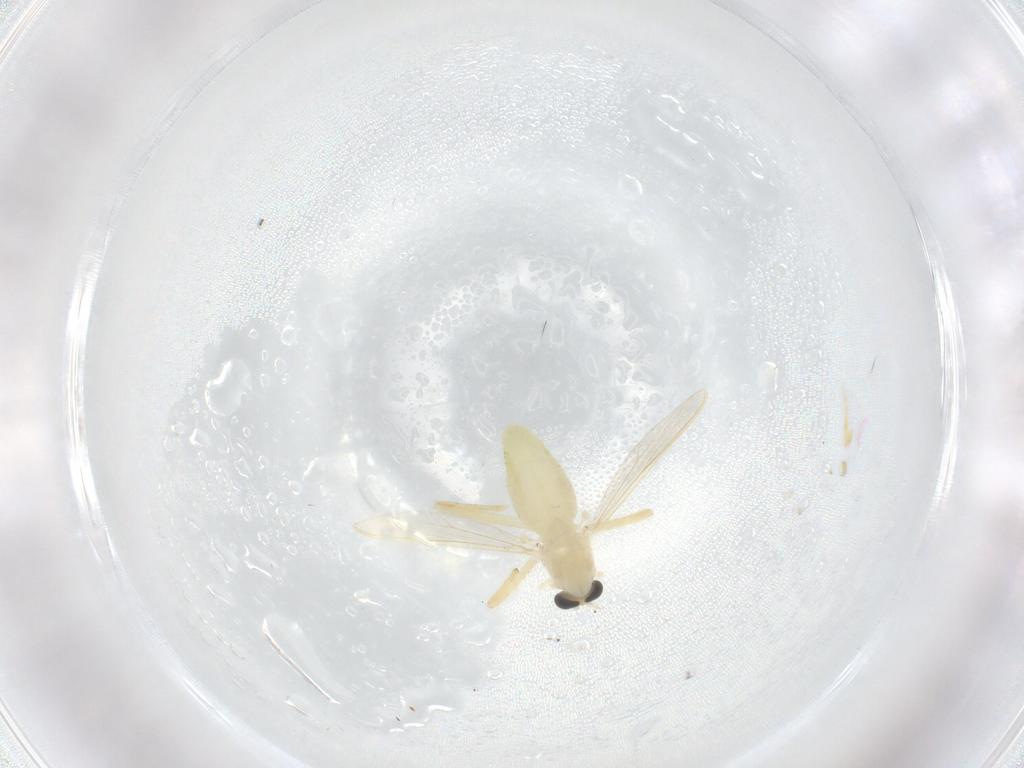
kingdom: Animalia
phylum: Arthropoda
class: Insecta
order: Diptera
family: Chironomidae
